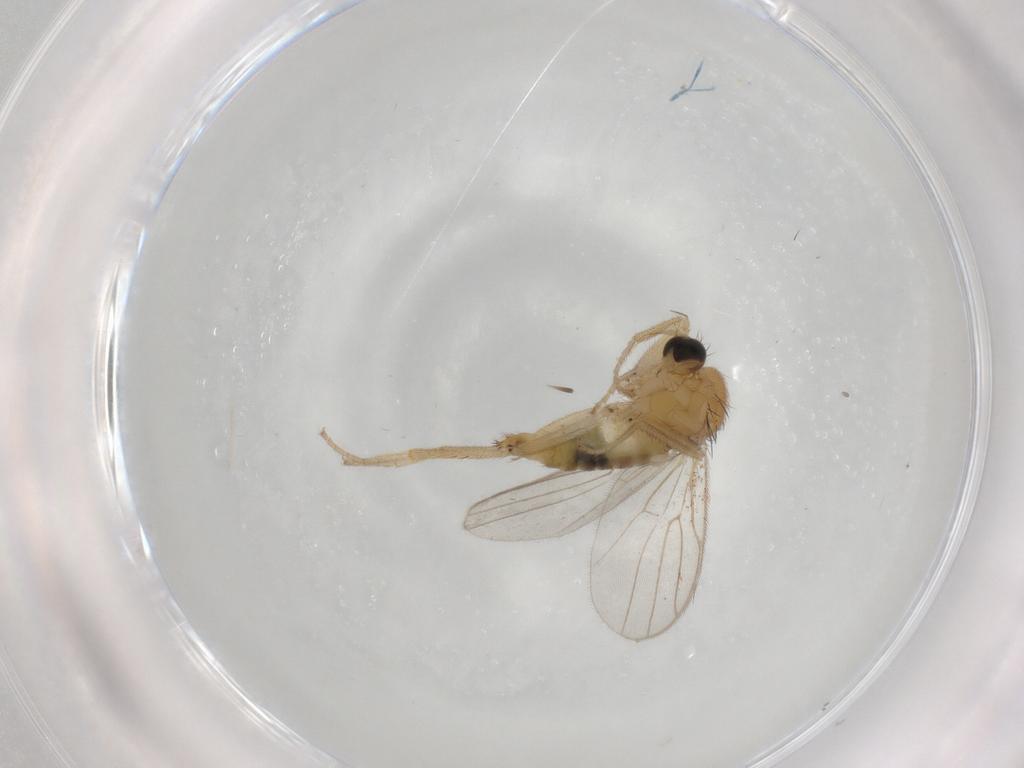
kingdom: Animalia
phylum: Arthropoda
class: Insecta
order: Diptera
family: Hybotidae
